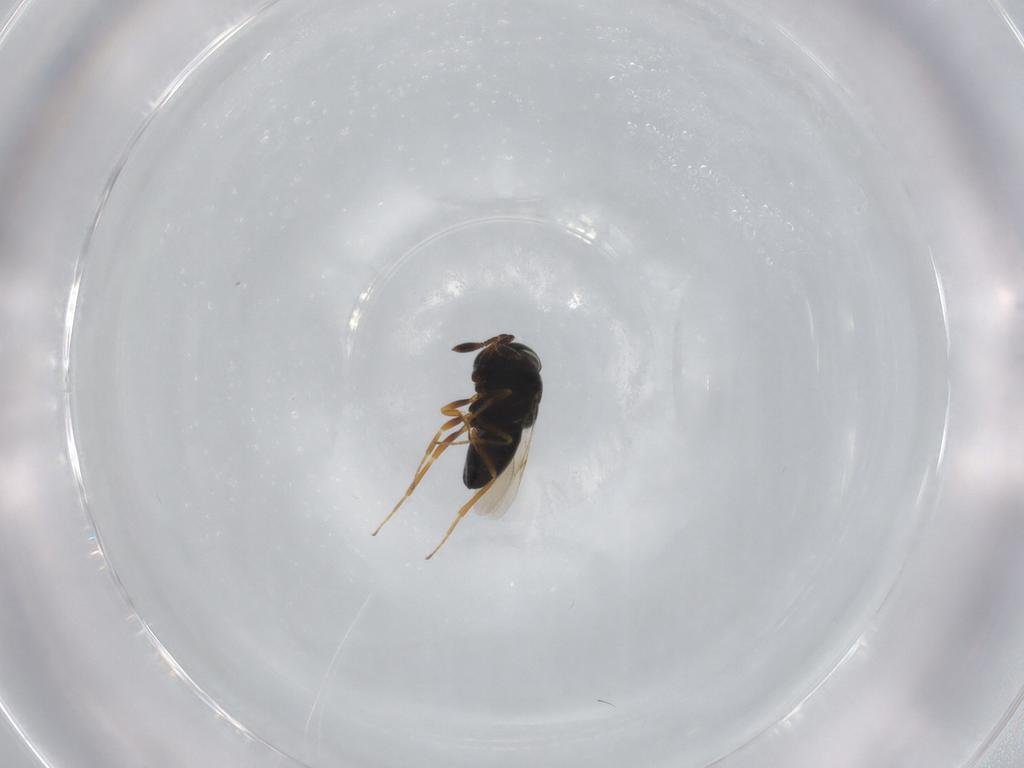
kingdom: Animalia
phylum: Arthropoda
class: Insecta
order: Hymenoptera
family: Scelionidae
